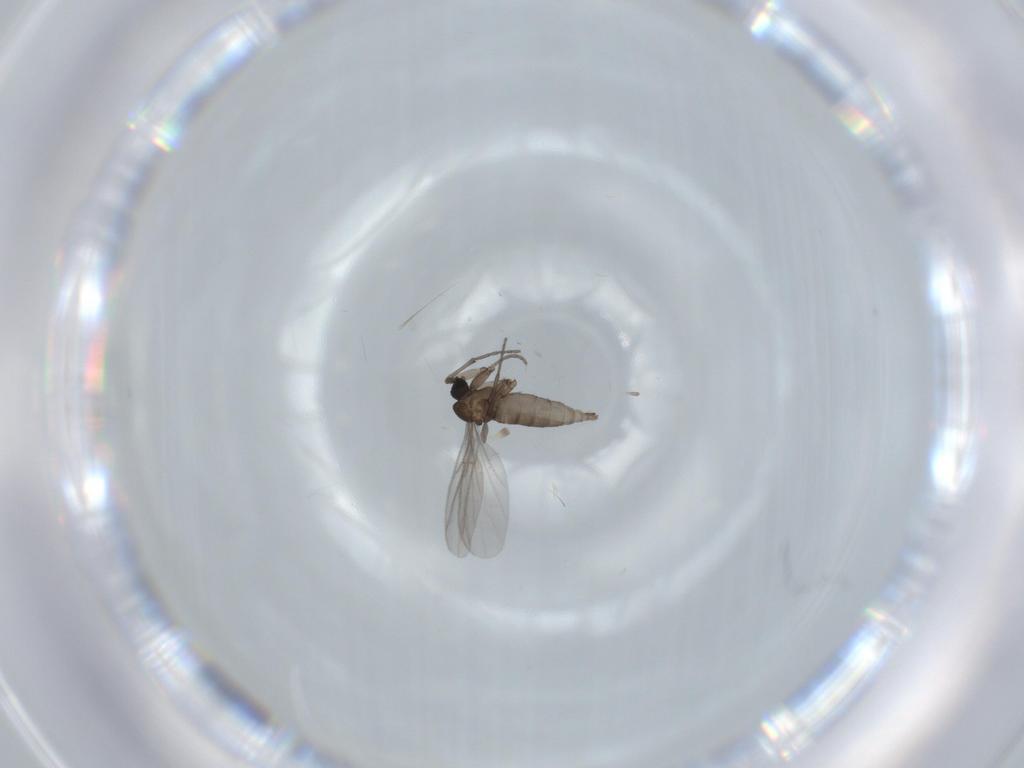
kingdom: Animalia
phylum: Arthropoda
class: Insecta
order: Diptera
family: Sciaridae
